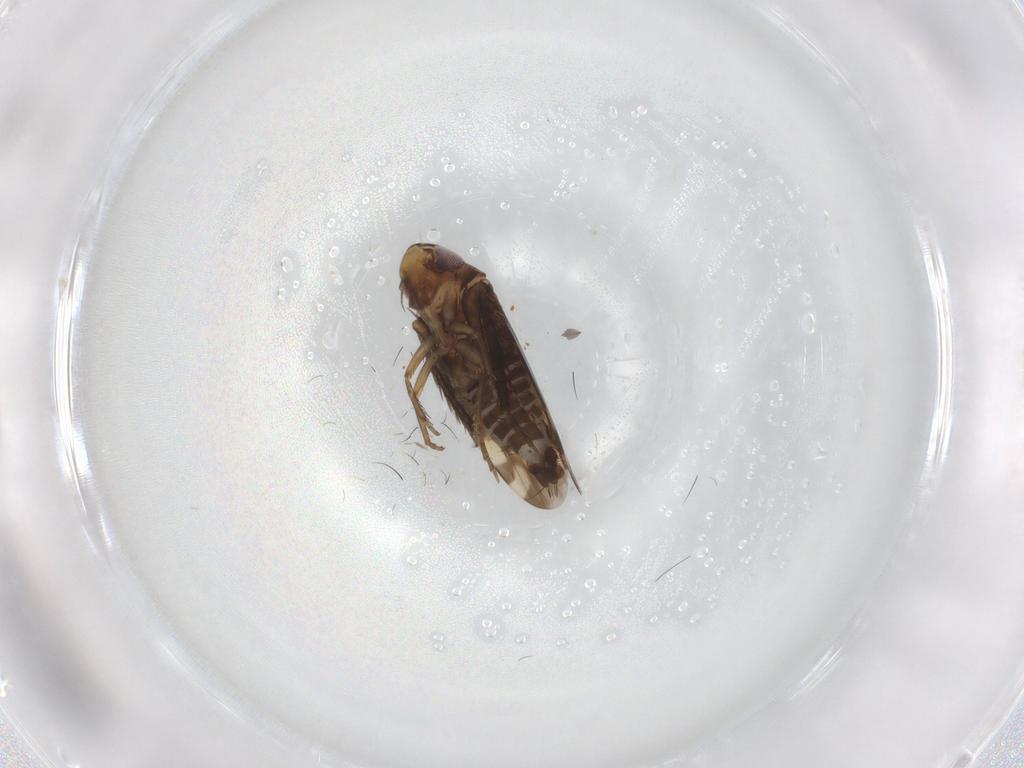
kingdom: Animalia
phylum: Arthropoda
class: Insecta
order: Hemiptera
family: Cicadellidae
